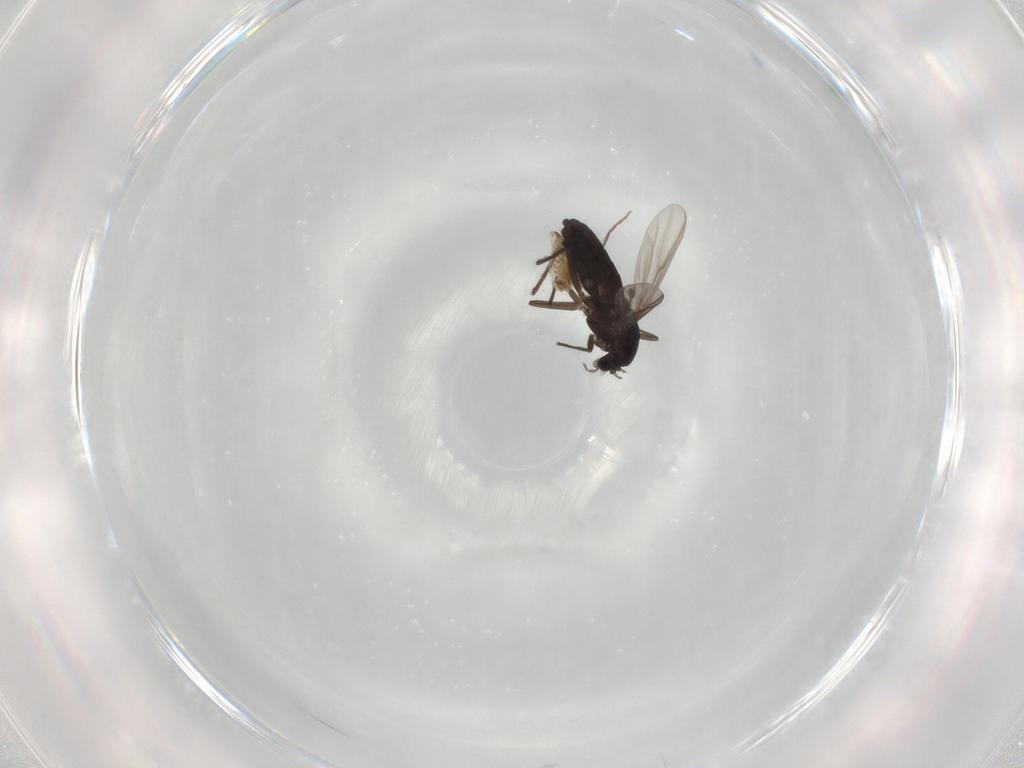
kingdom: Animalia
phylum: Arthropoda
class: Insecta
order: Diptera
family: Chironomidae
